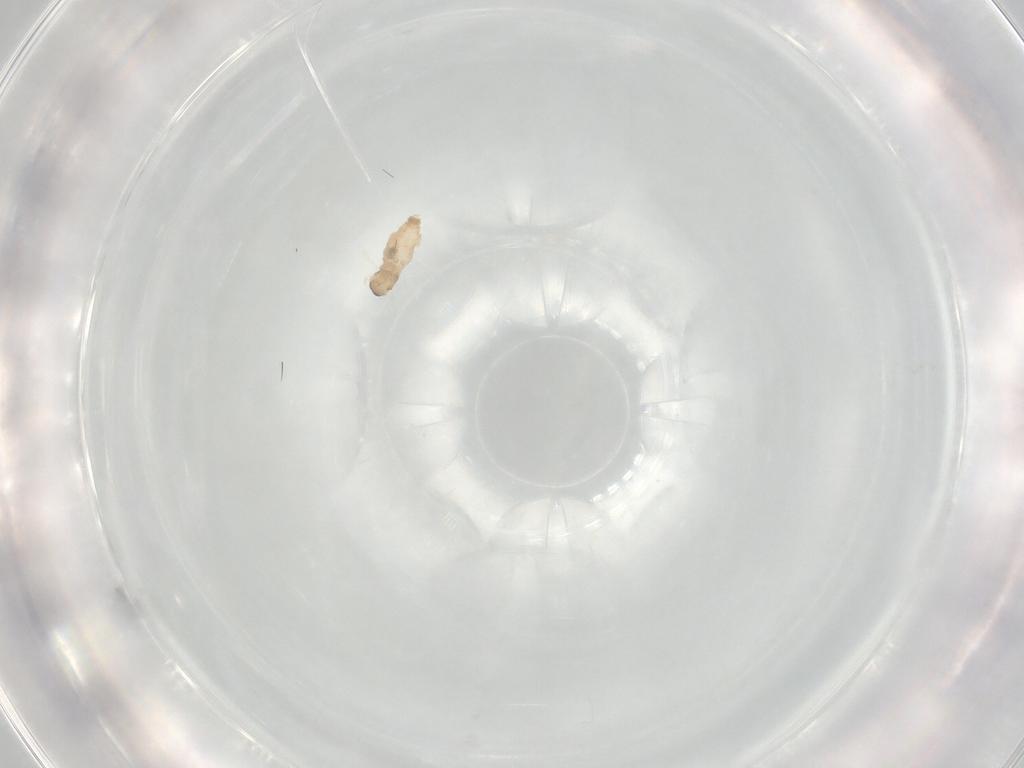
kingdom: Animalia
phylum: Arthropoda
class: Insecta
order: Diptera
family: Cecidomyiidae
